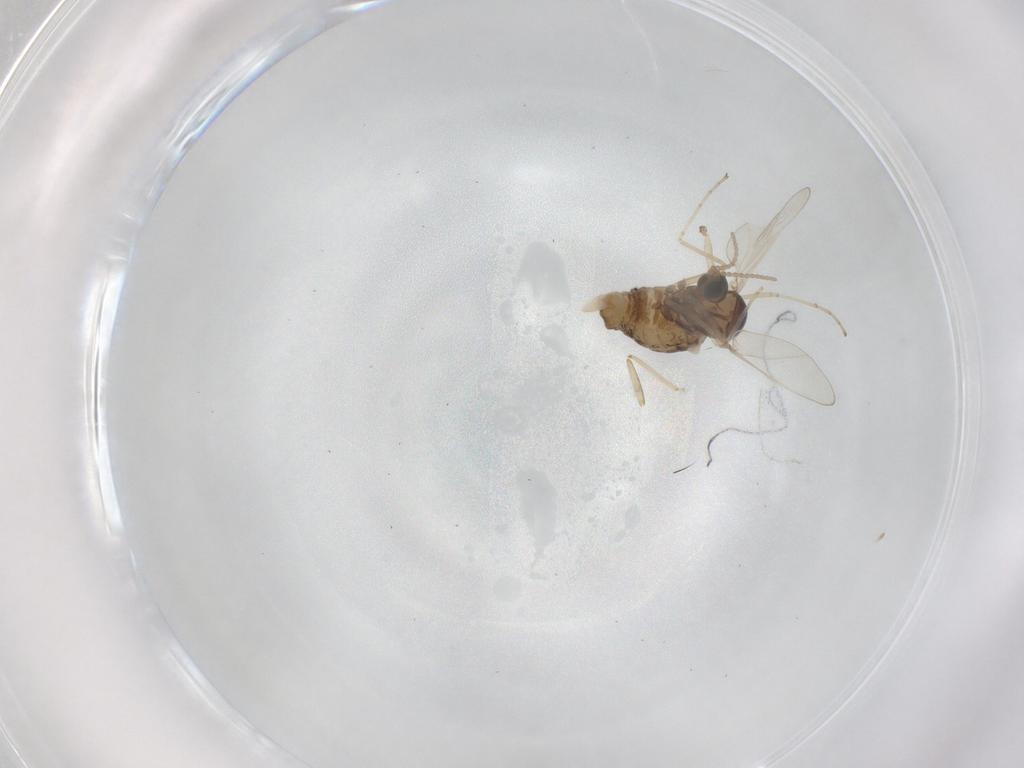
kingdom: Animalia
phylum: Arthropoda
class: Insecta
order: Diptera
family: Cecidomyiidae
